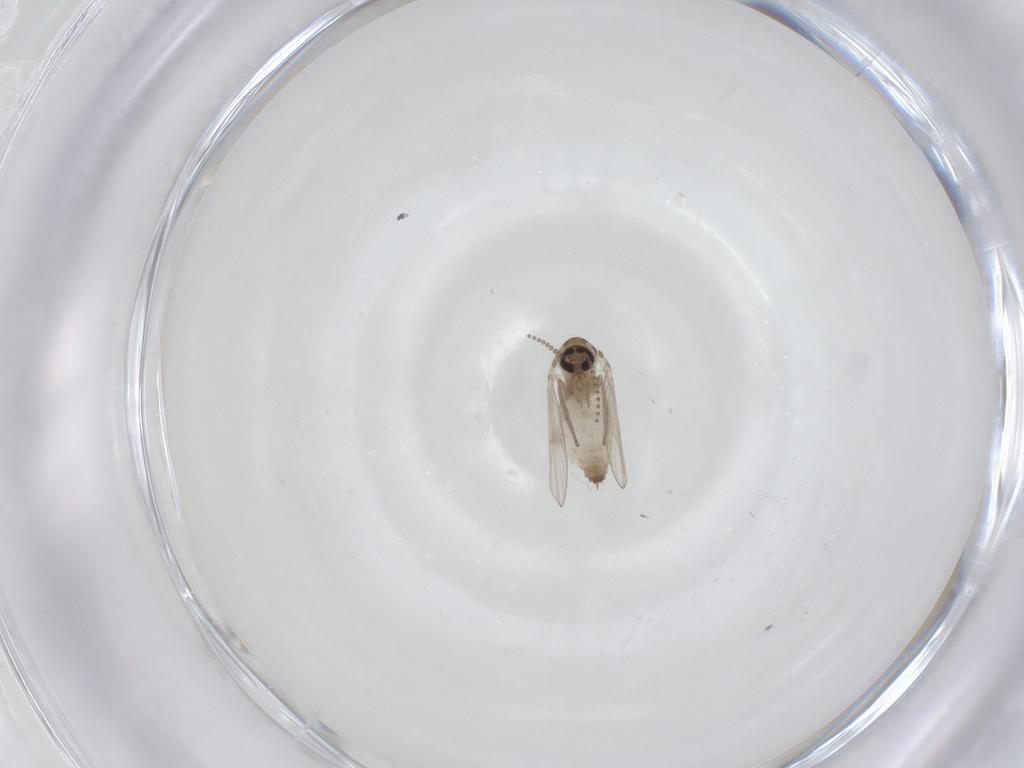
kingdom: Animalia
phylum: Arthropoda
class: Insecta
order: Diptera
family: Psychodidae
